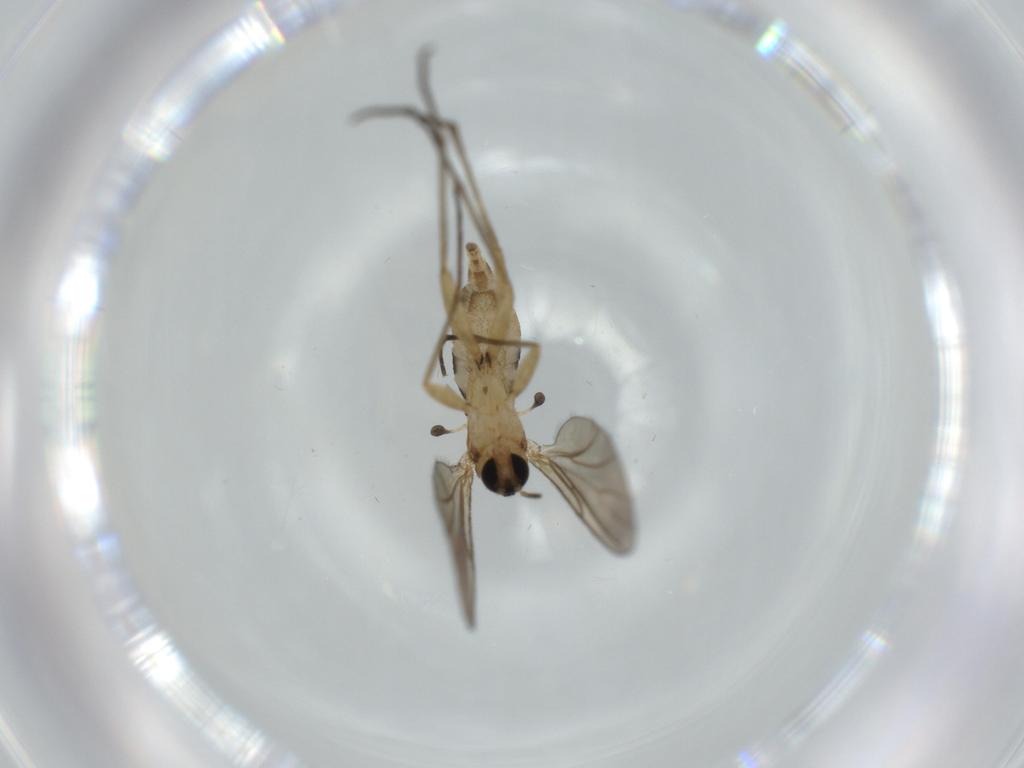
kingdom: Animalia
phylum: Arthropoda
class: Insecta
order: Diptera
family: Sciaridae
